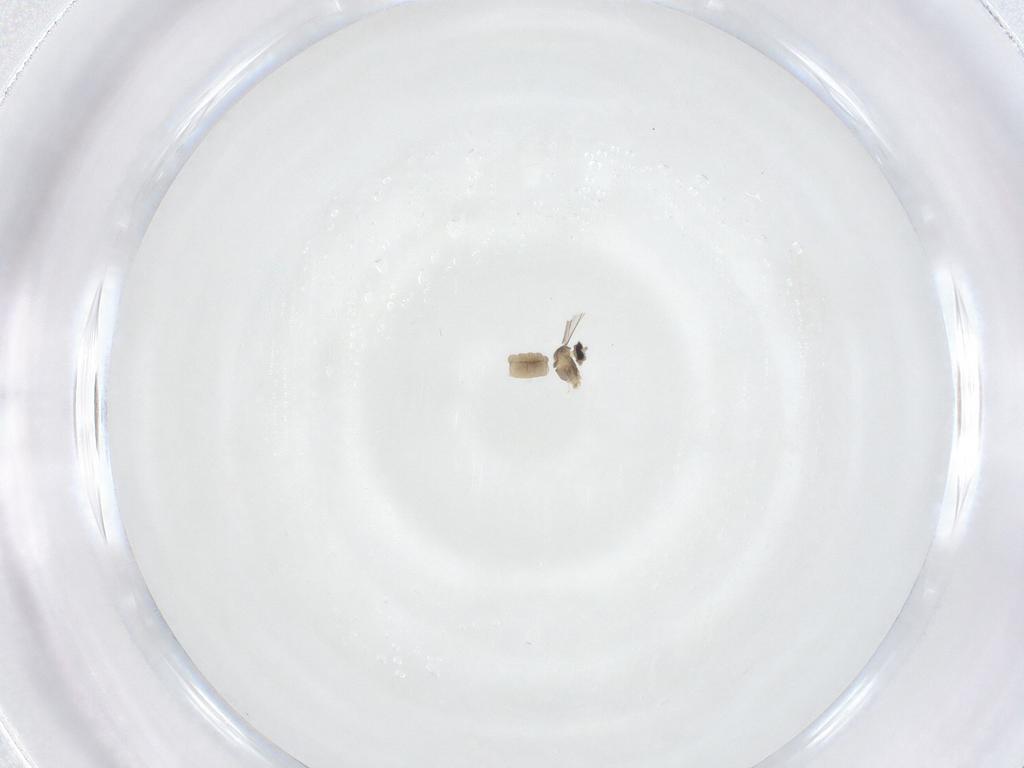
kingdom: Animalia
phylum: Arthropoda
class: Insecta
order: Diptera
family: Cecidomyiidae
